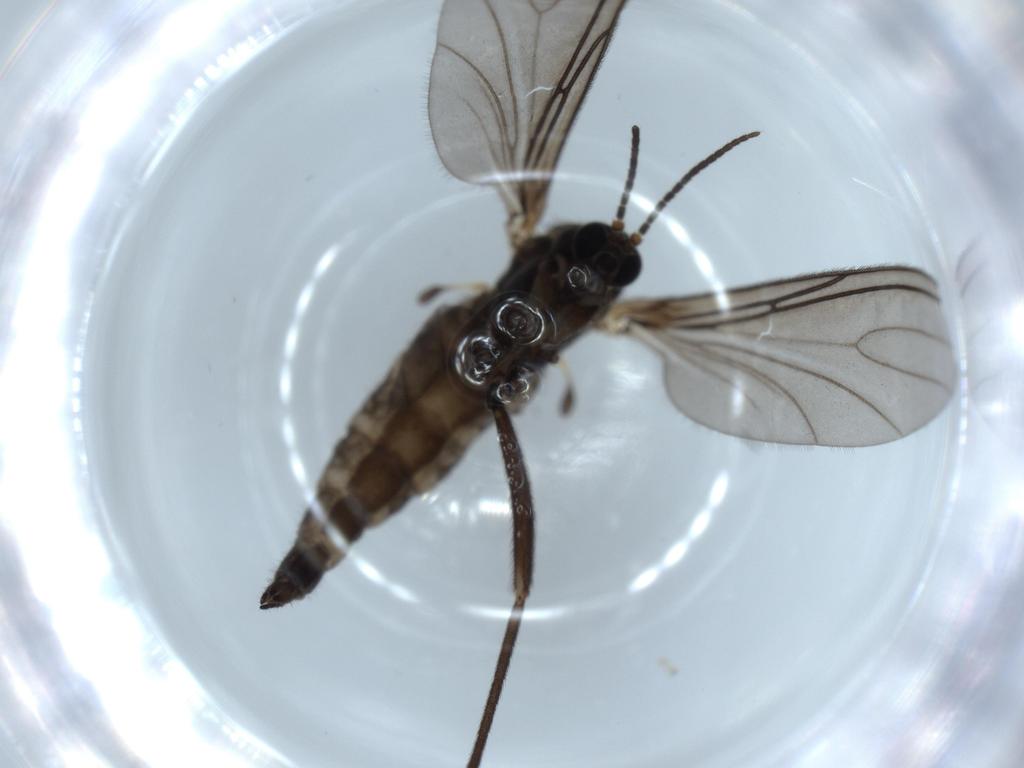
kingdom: Animalia
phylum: Arthropoda
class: Insecta
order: Diptera
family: Sciaridae
